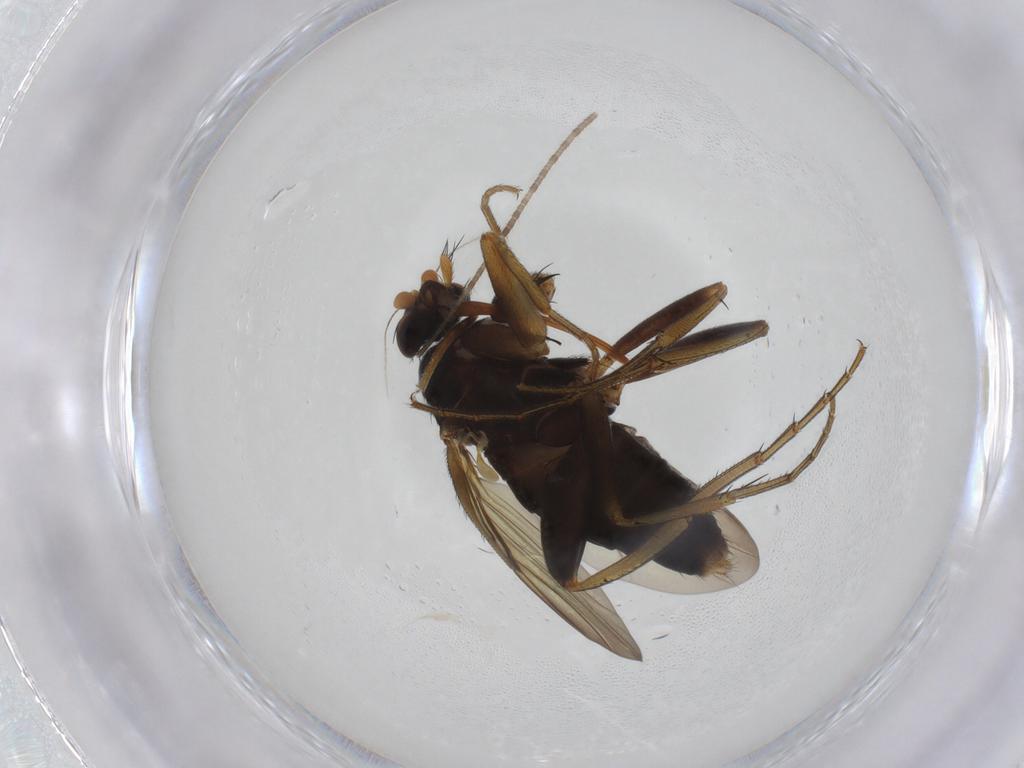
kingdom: Animalia
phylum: Arthropoda
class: Insecta
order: Diptera
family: Phoridae
